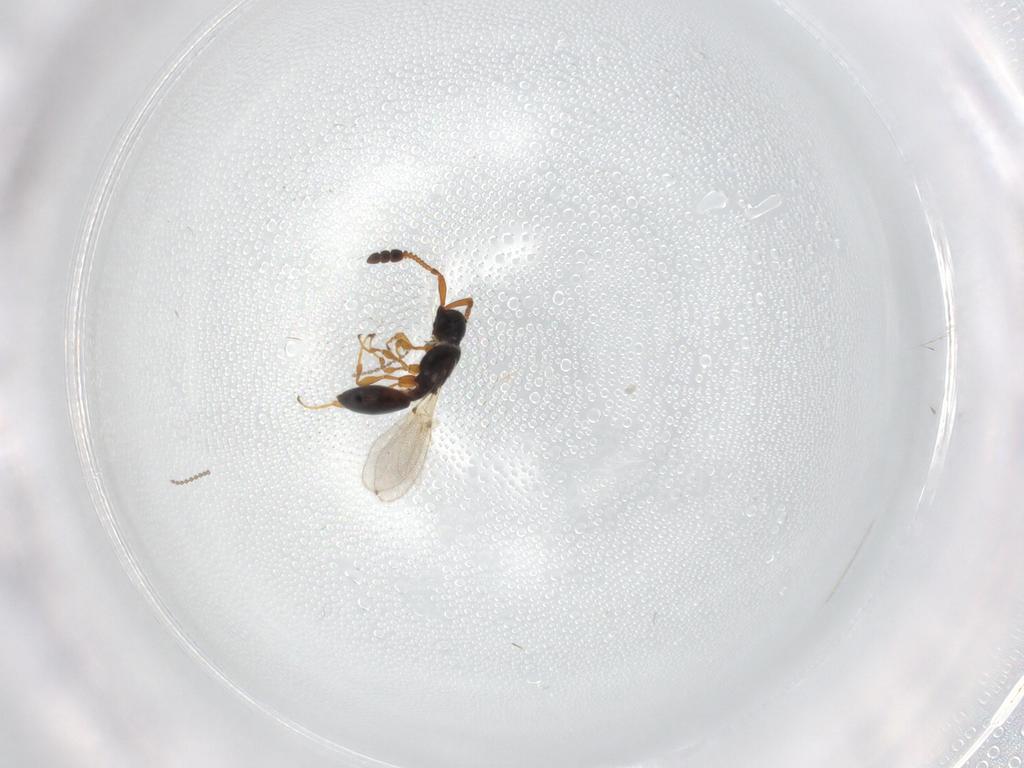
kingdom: Animalia
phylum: Arthropoda
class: Insecta
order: Hymenoptera
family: Diapriidae
